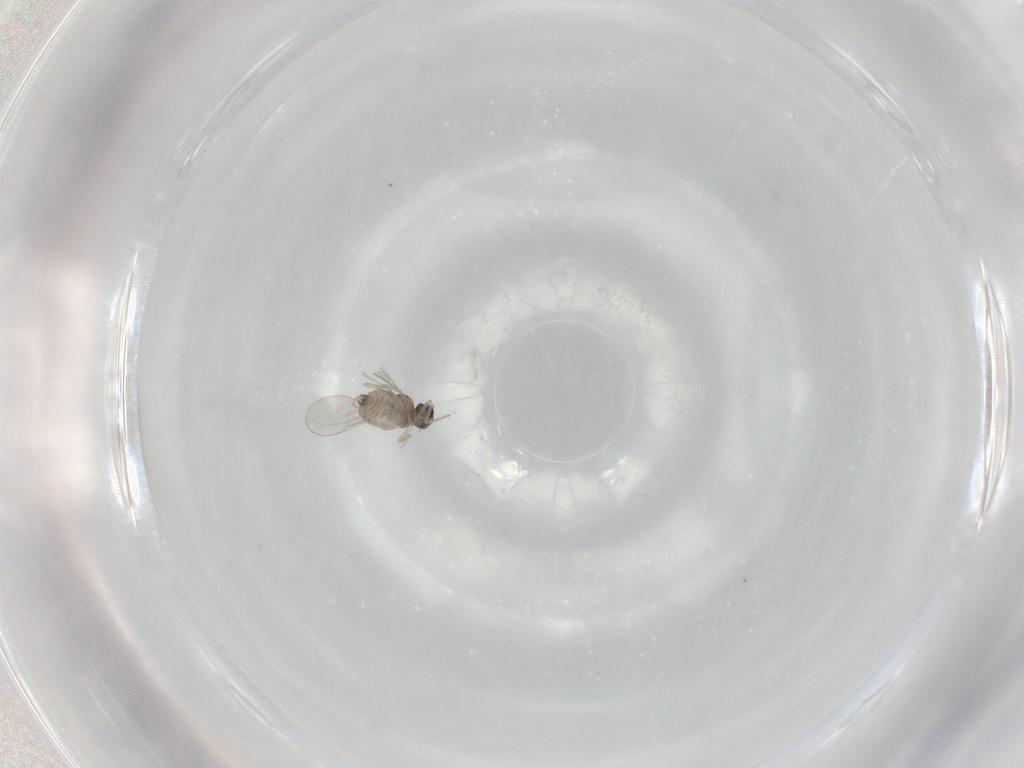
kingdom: Animalia
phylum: Arthropoda
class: Insecta
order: Diptera
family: Cecidomyiidae
